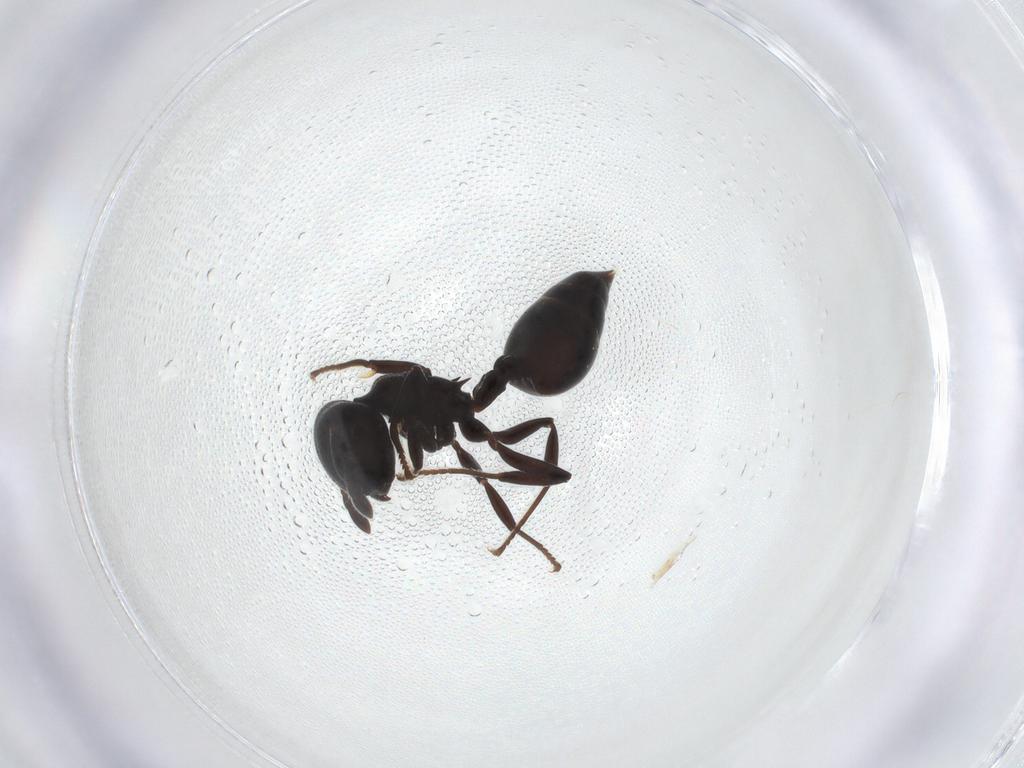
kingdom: Animalia
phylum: Arthropoda
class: Insecta
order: Hymenoptera
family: Formicidae
